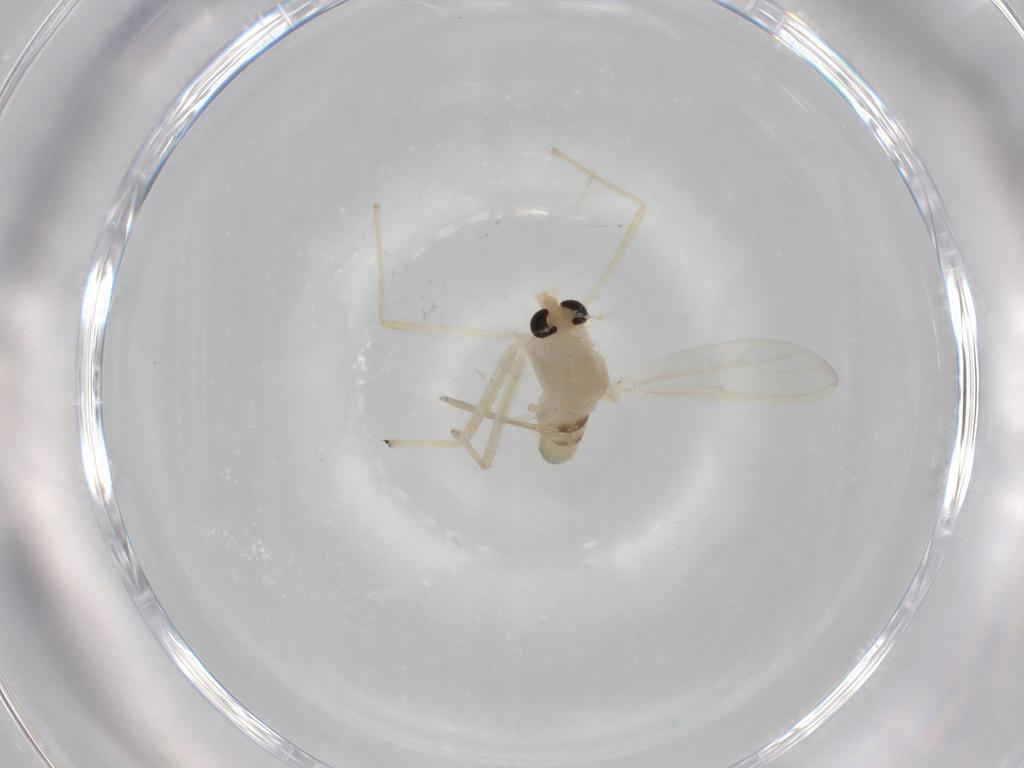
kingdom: Animalia
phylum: Arthropoda
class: Insecta
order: Diptera
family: Chironomidae
